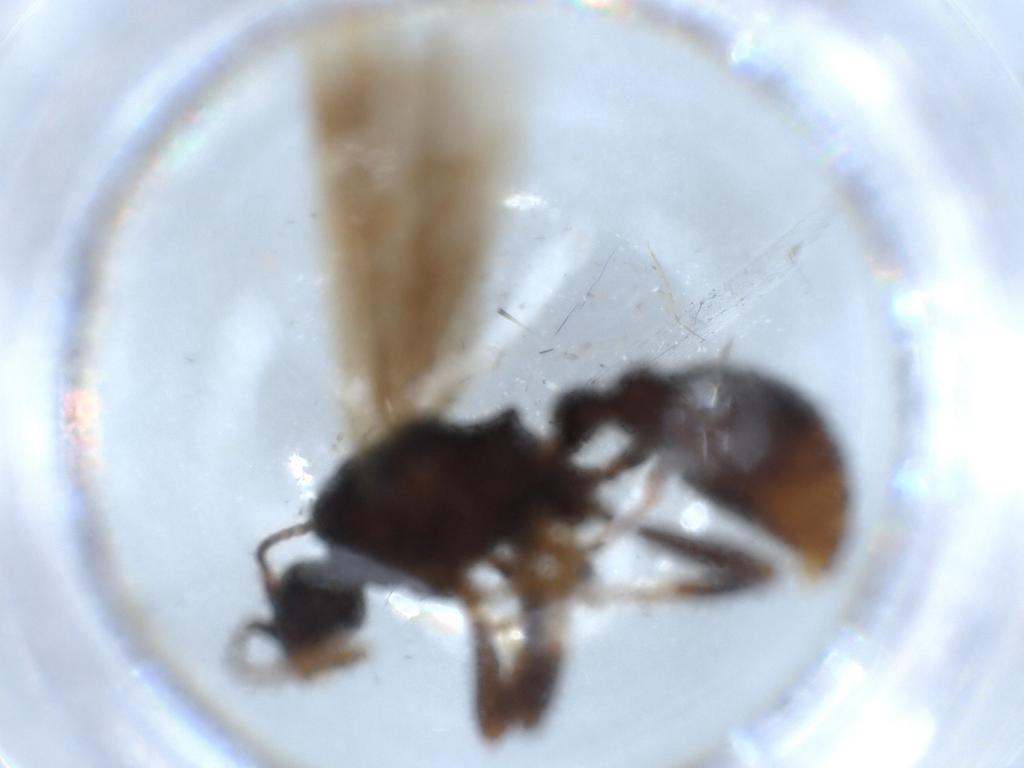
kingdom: Animalia
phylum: Arthropoda
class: Insecta
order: Hymenoptera
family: Formicidae
